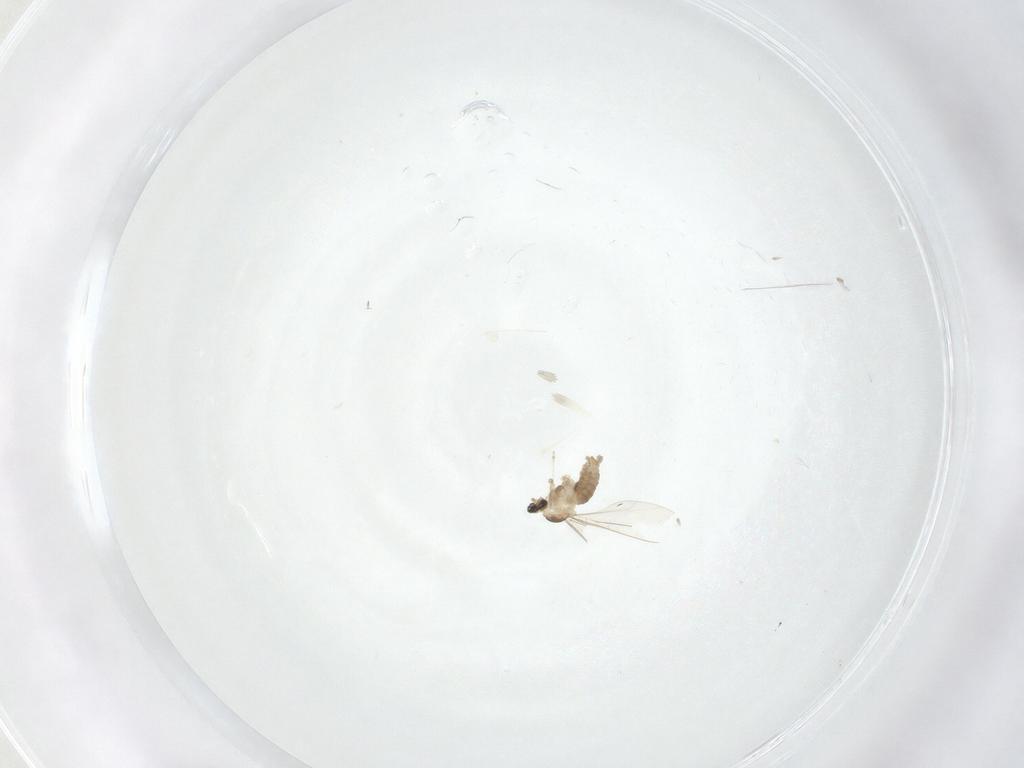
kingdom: Animalia
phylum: Arthropoda
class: Insecta
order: Diptera
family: Cecidomyiidae
